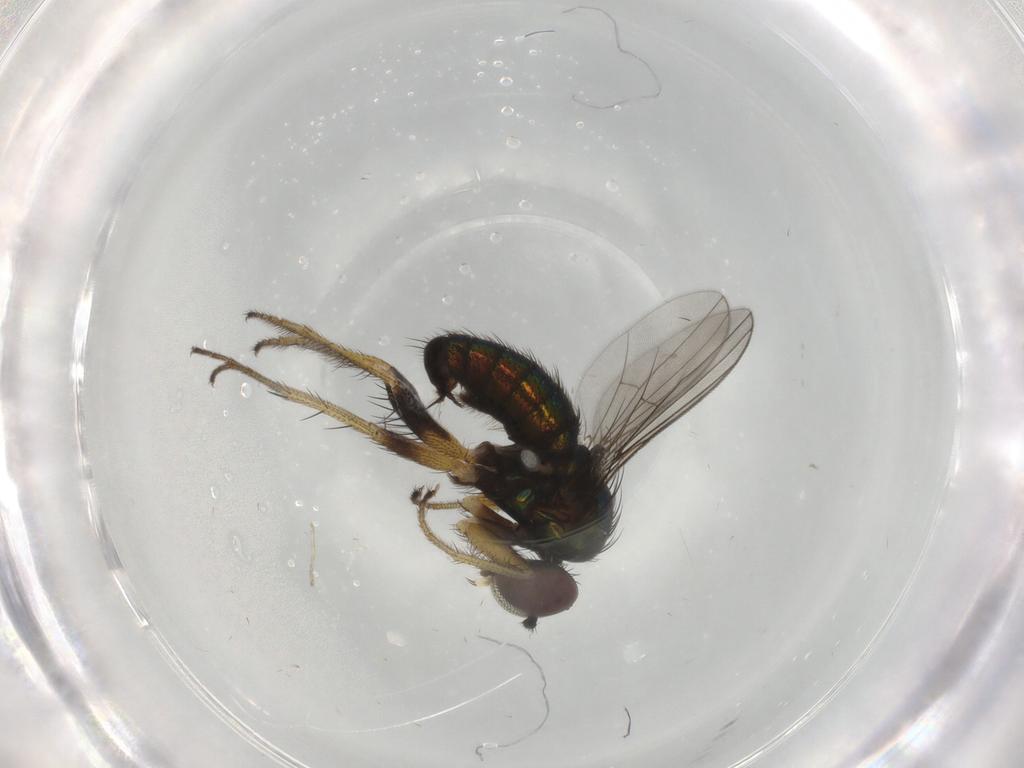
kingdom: Animalia
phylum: Arthropoda
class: Insecta
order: Diptera
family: Dolichopodidae
